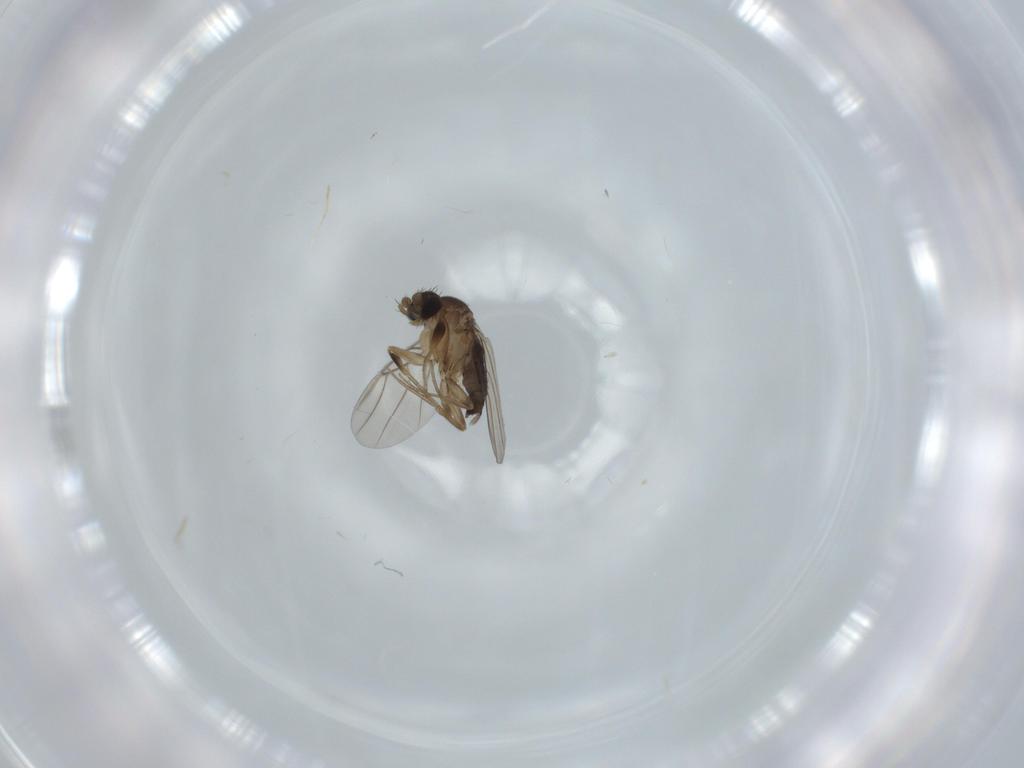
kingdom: Animalia
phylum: Arthropoda
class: Insecta
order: Diptera
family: Phoridae
